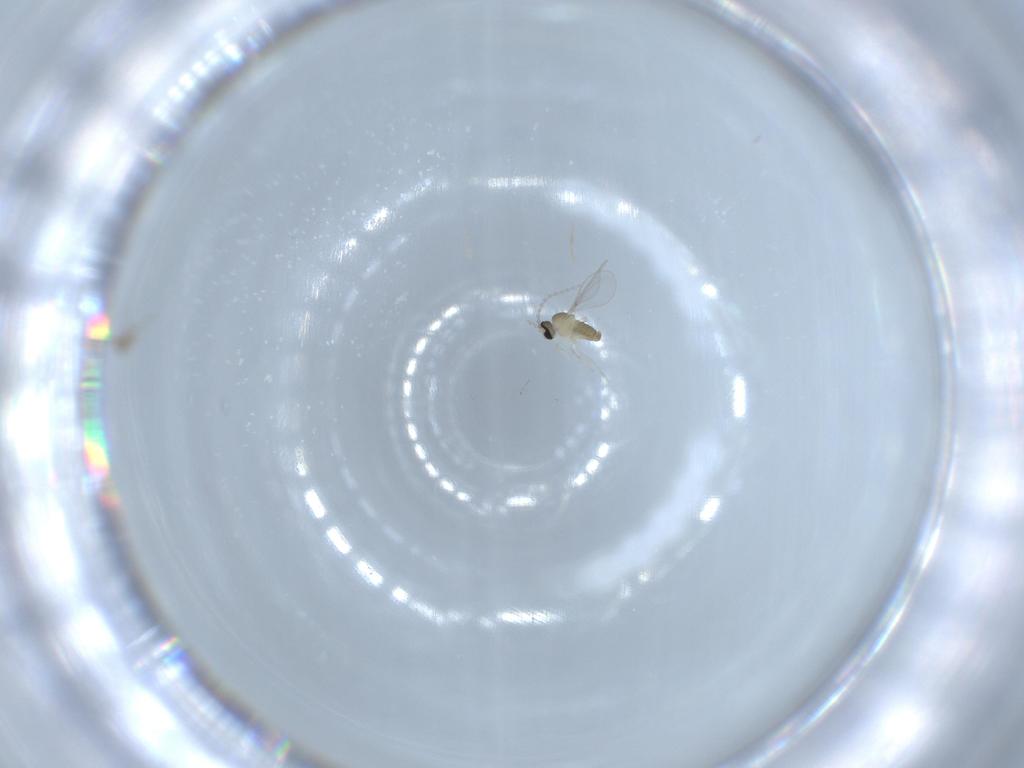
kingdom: Animalia
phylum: Arthropoda
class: Insecta
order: Diptera
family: Cecidomyiidae
